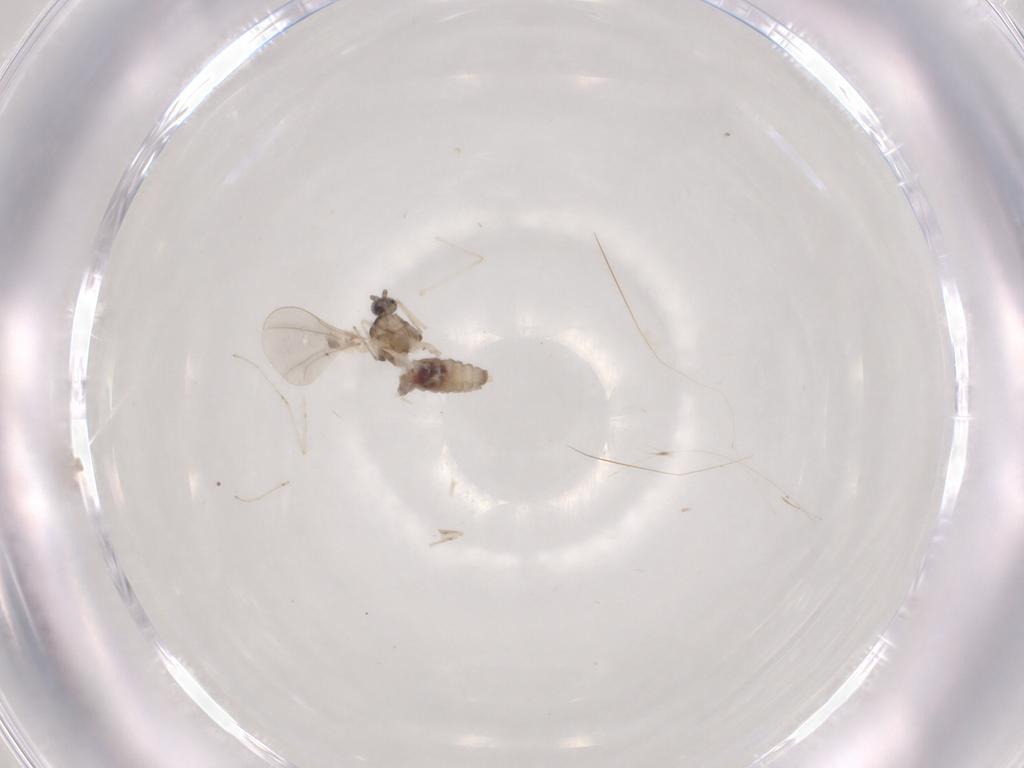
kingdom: Animalia
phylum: Arthropoda
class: Insecta
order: Diptera
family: Cecidomyiidae
